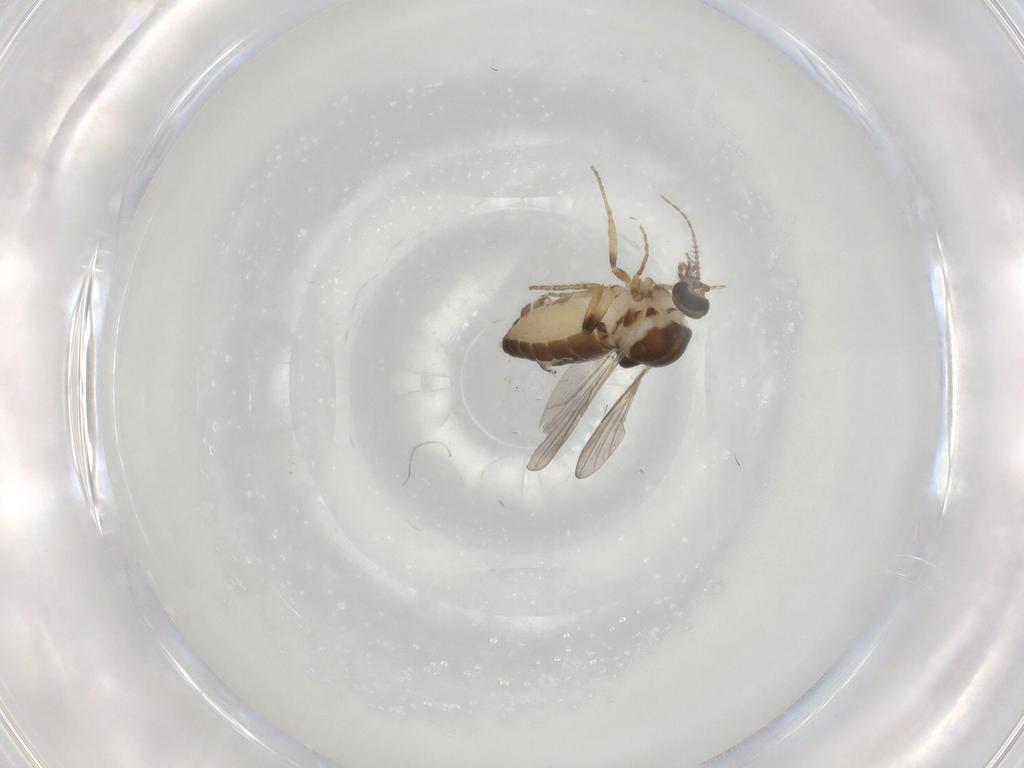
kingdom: Animalia
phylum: Arthropoda
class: Insecta
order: Diptera
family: Ceratopogonidae
